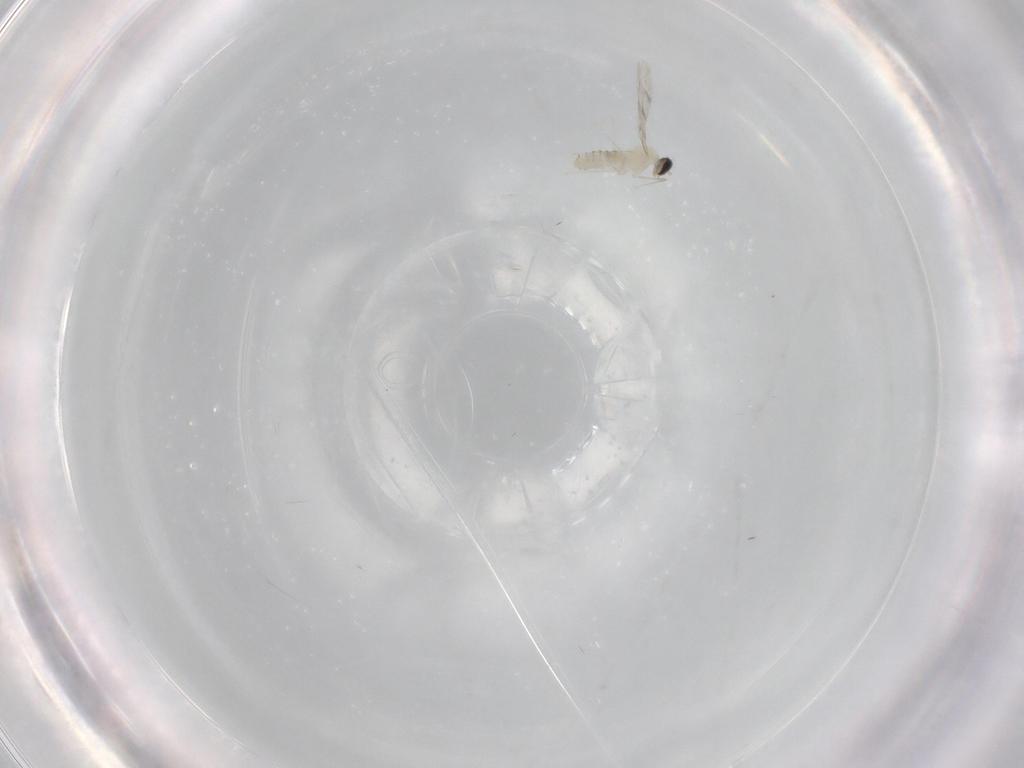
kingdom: Animalia
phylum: Arthropoda
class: Insecta
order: Diptera
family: Cecidomyiidae
